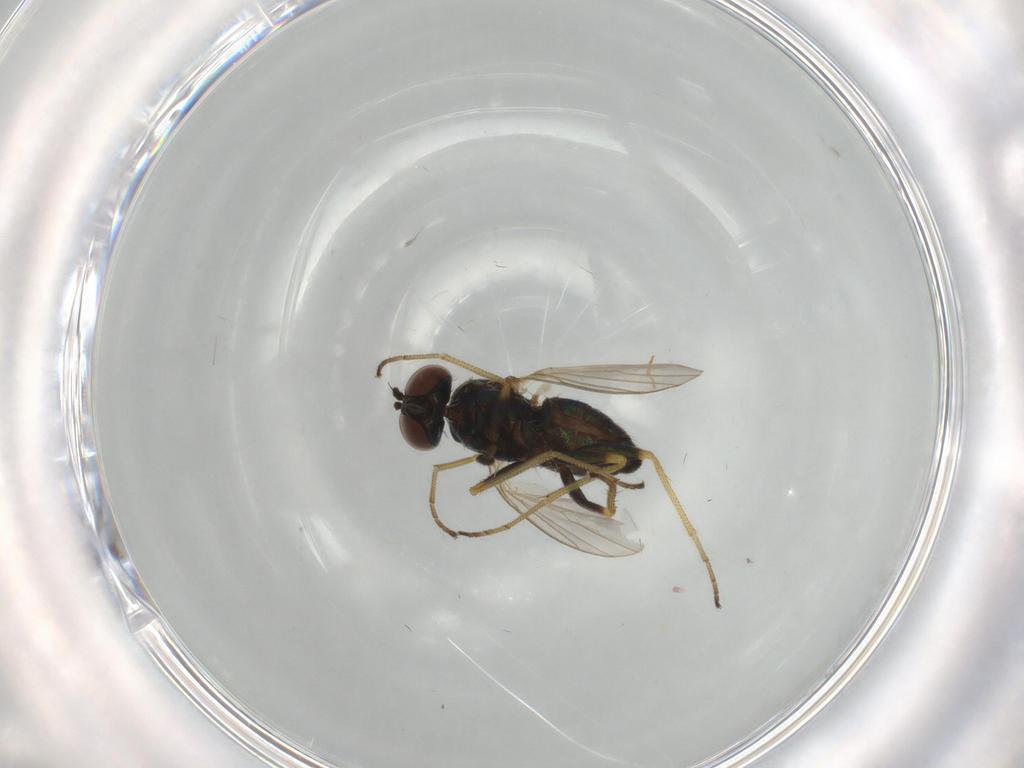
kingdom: Animalia
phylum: Arthropoda
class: Insecta
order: Diptera
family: Dolichopodidae
